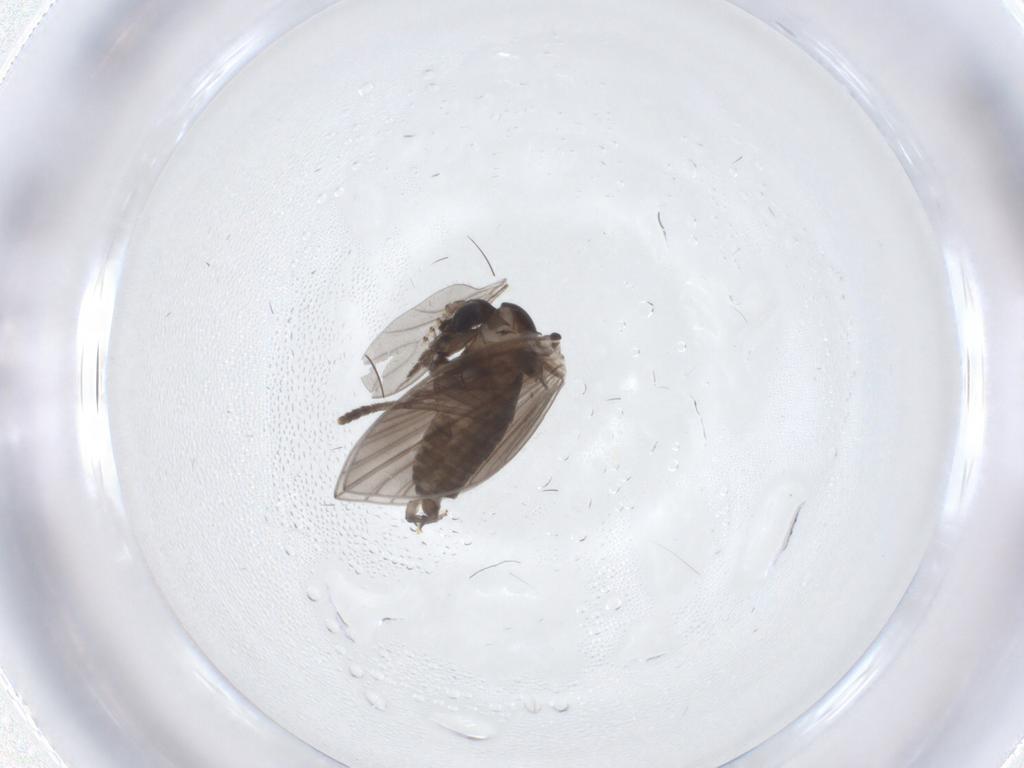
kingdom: Animalia
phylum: Arthropoda
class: Insecta
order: Diptera
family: Psychodidae
